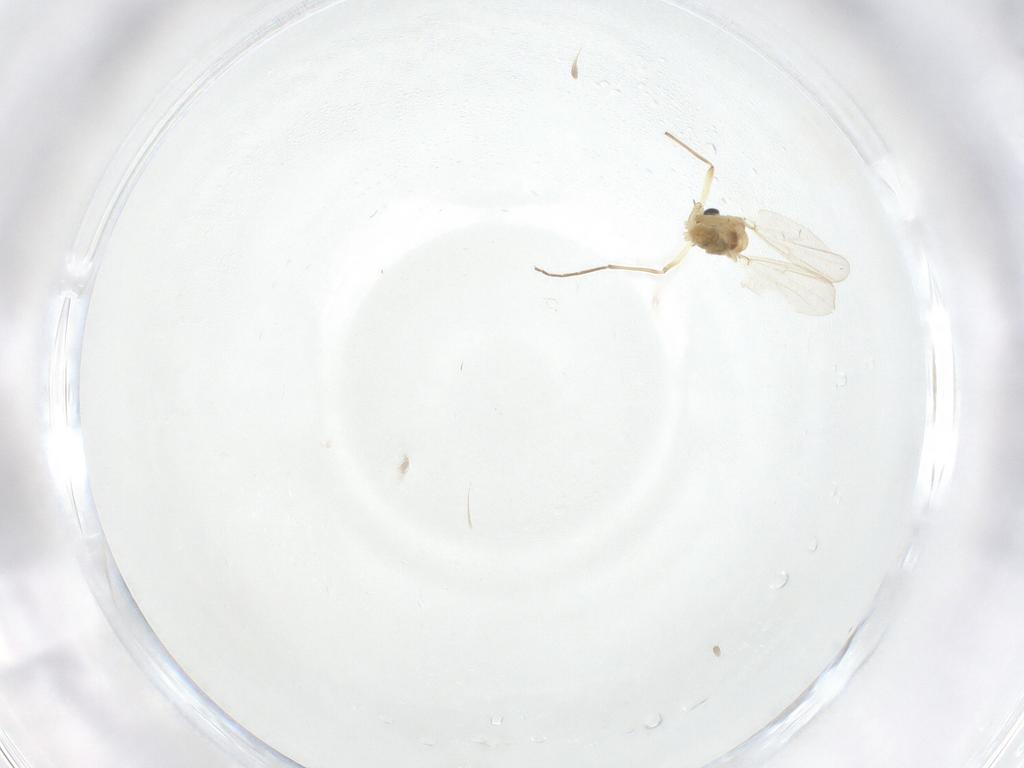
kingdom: Animalia
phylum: Arthropoda
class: Insecta
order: Diptera
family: Chironomidae
